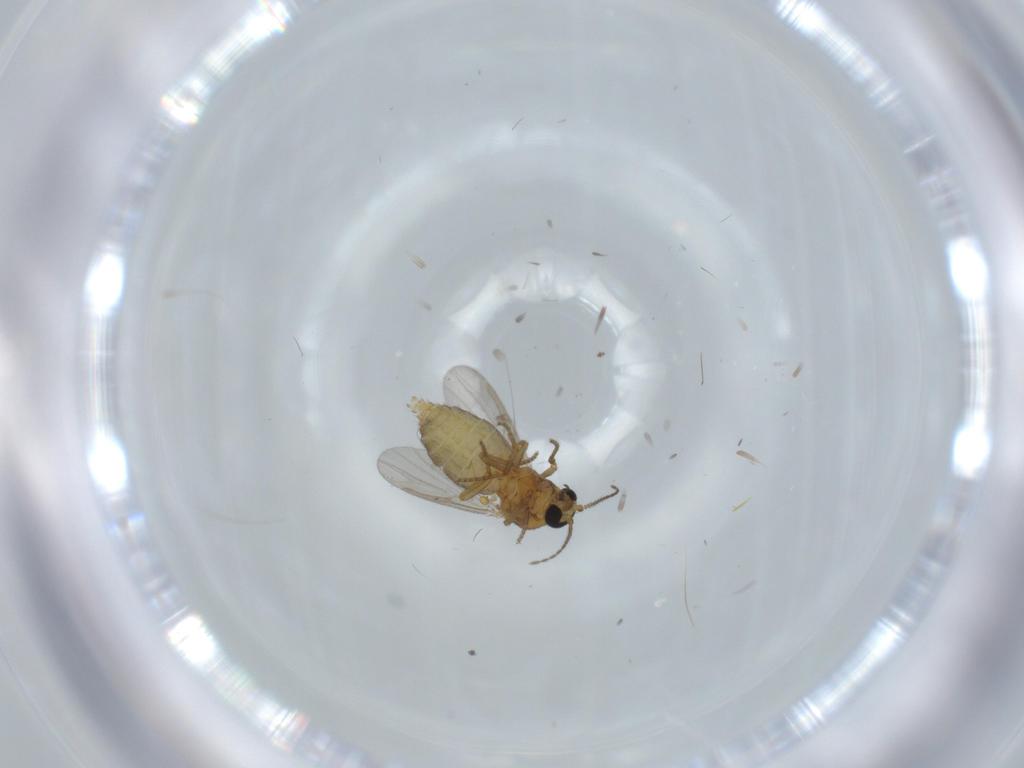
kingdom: Animalia
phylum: Arthropoda
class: Insecta
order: Diptera
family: Ceratopogonidae
